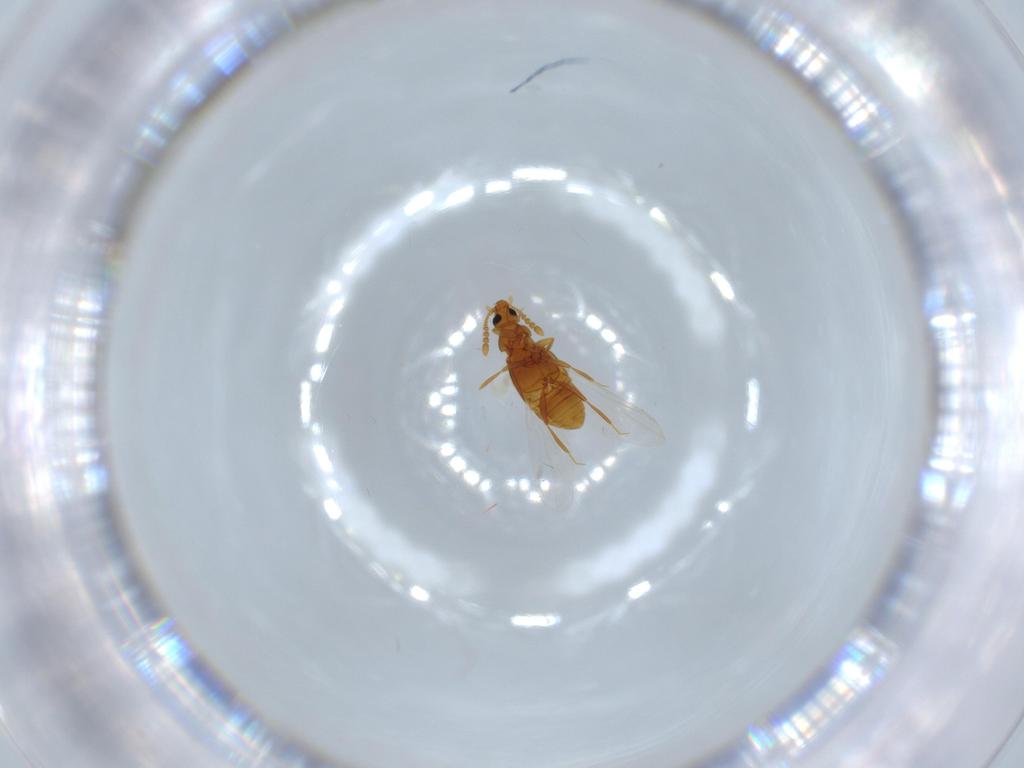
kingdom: Animalia
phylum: Arthropoda
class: Insecta
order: Coleoptera
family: Staphylinidae
